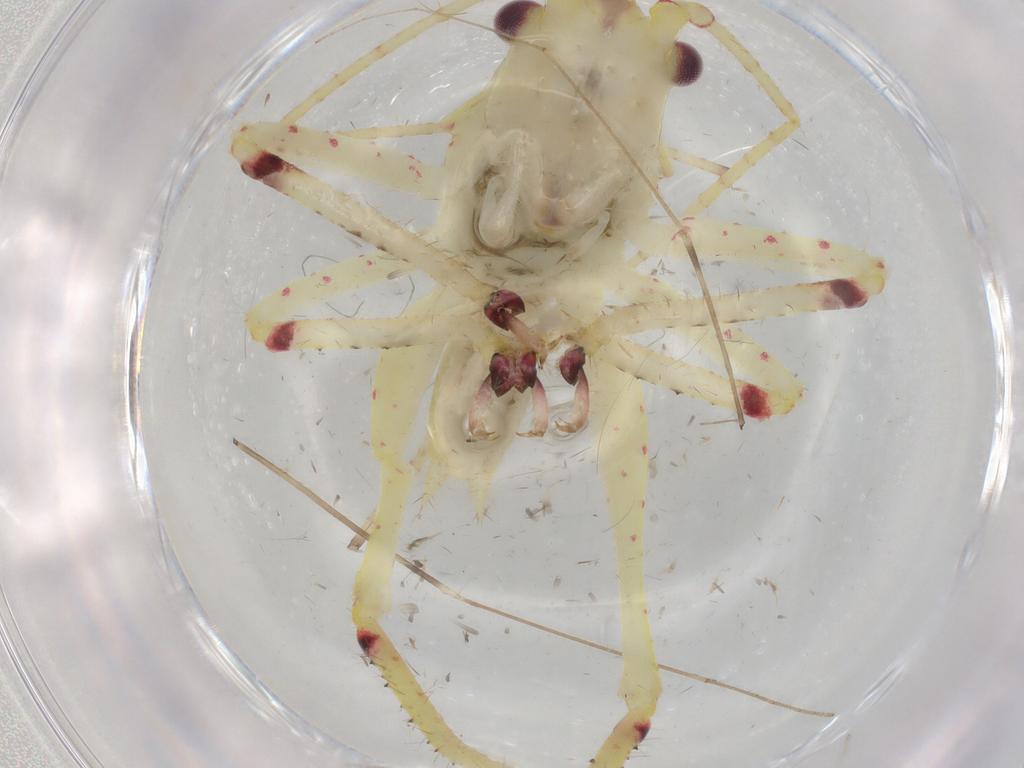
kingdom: Animalia
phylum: Arthropoda
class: Insecta
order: Orthoptera
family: Tettigoniidae
